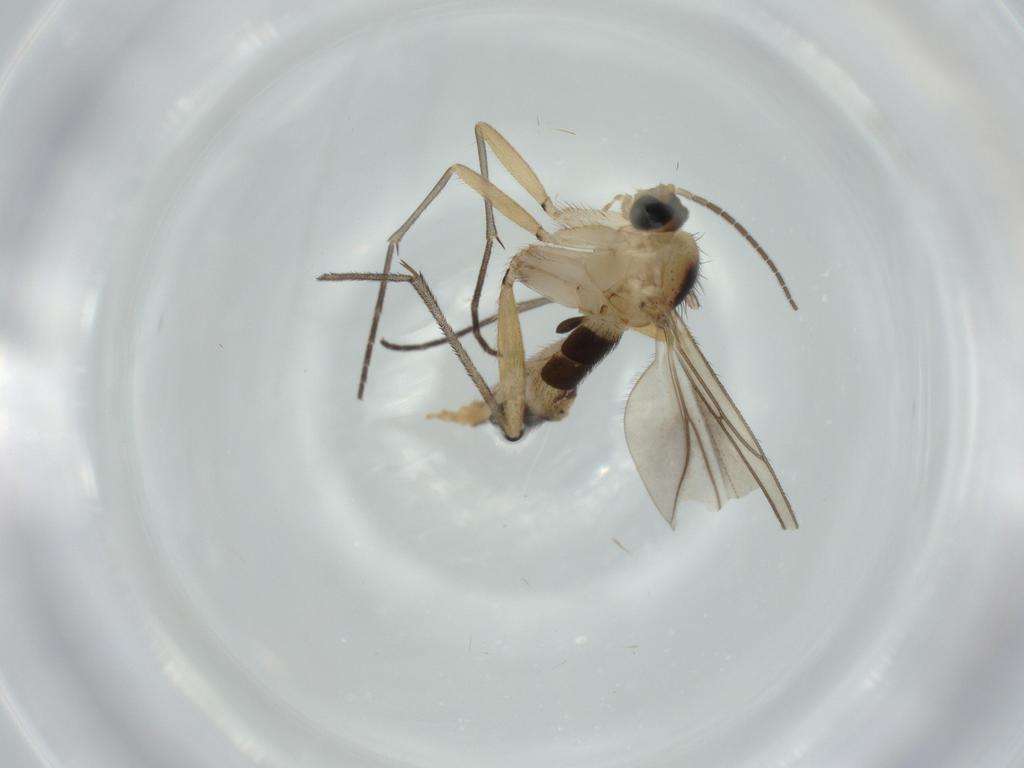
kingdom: Animalia
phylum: Arthropoda
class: Insecta
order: Diptera
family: Sciaridae
